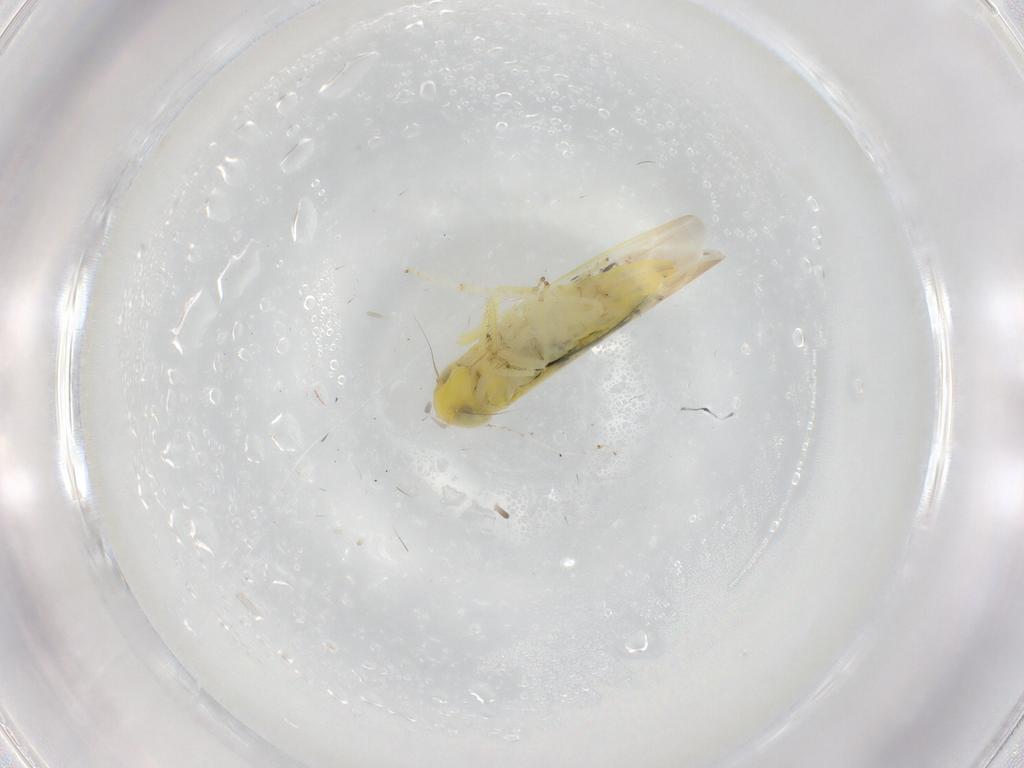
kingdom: Animalia
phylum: Arthropoda
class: Insecta
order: Hemiptera
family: Cicadellidae
